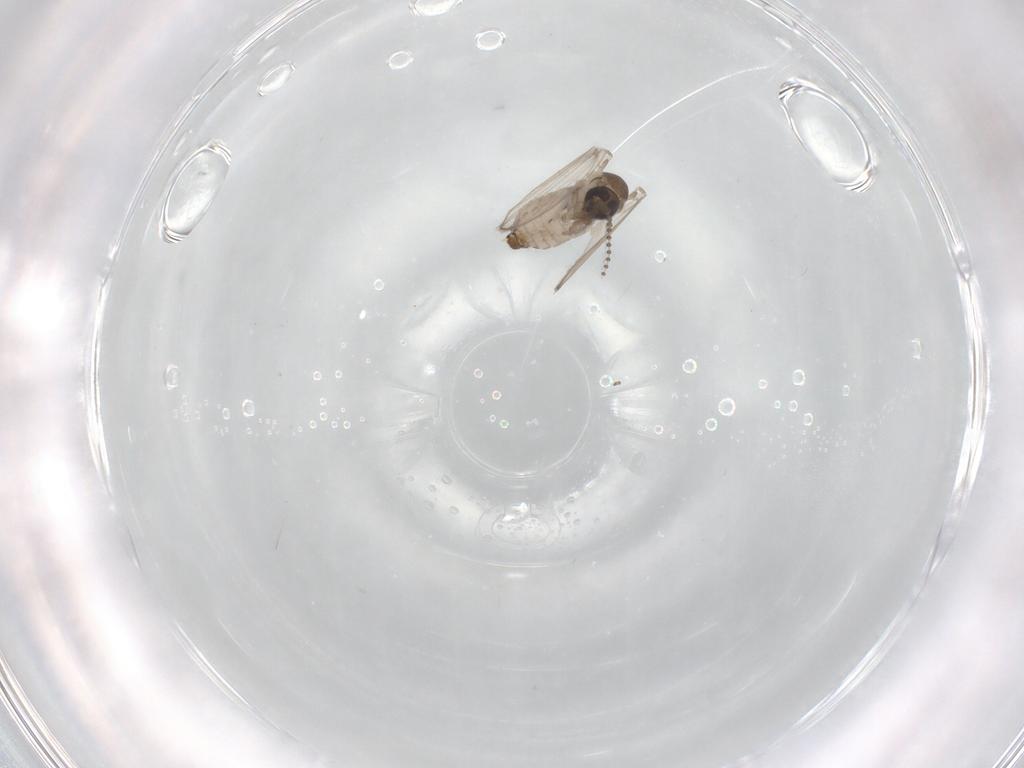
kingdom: Animalia
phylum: Arthropoda
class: Insecta
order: Diptera
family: Psychodidae
